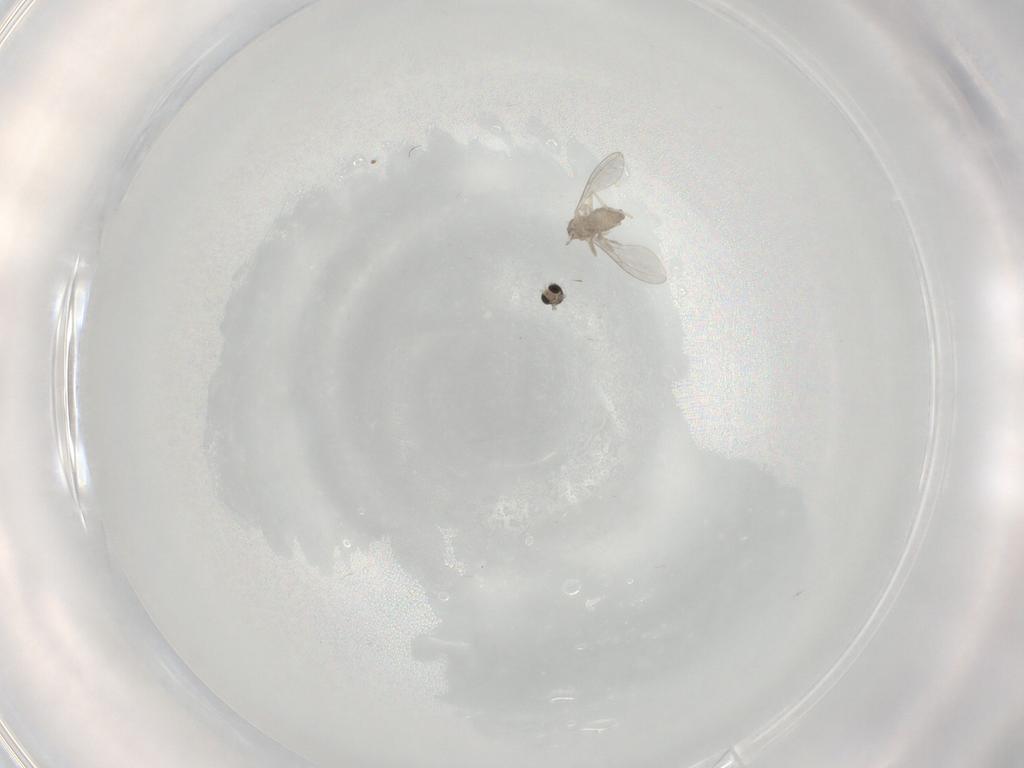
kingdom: Animalia
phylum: Arthropoda
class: Insecta
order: Diptera
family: Cecidomyiidae
